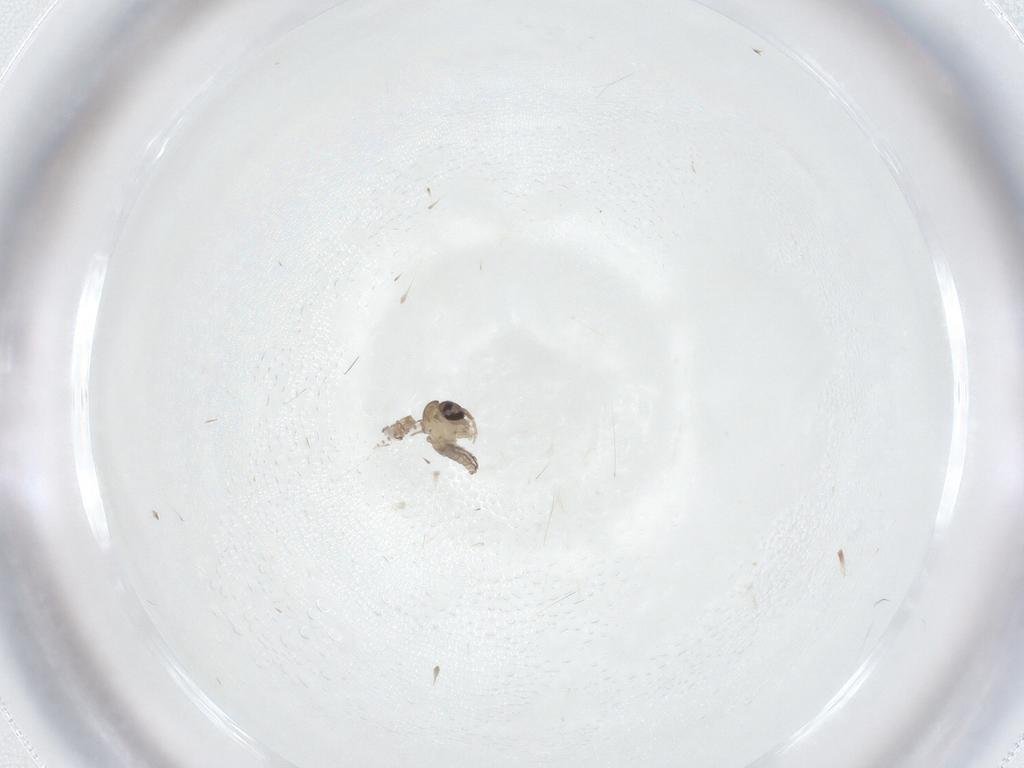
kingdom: Animalia
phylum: Arthropoda
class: Insecta
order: Diptera
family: Psychodidae
